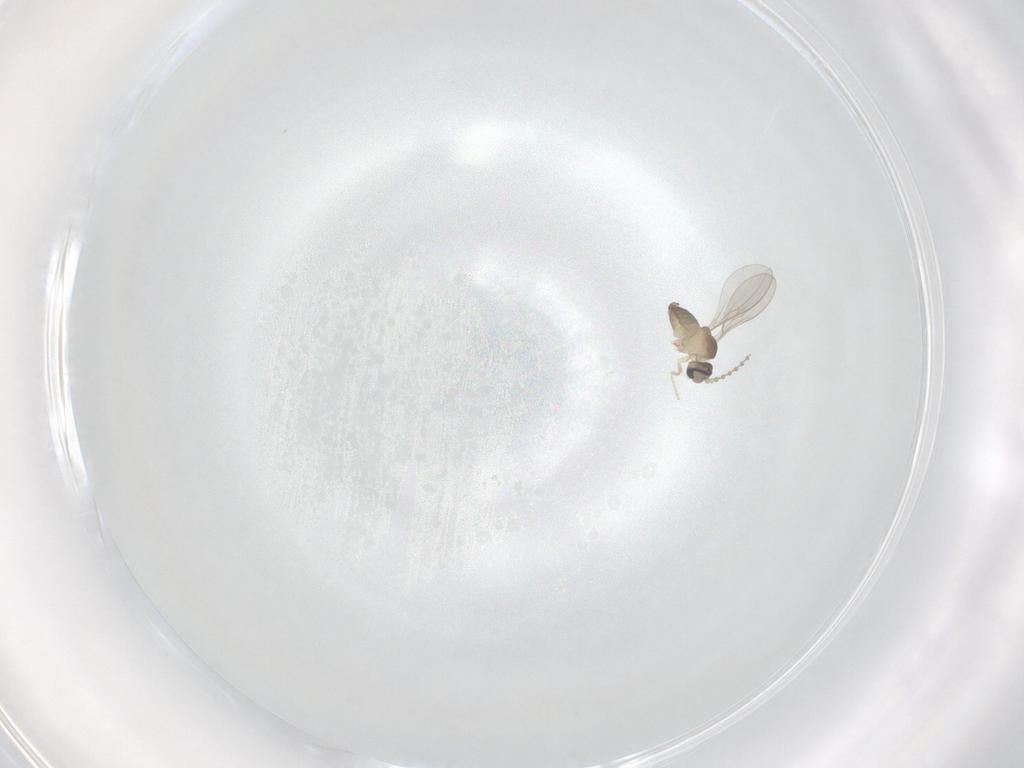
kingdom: Animalia
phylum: Arthropoda
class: Insecta
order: Diptera
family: Cecidomyiidae
